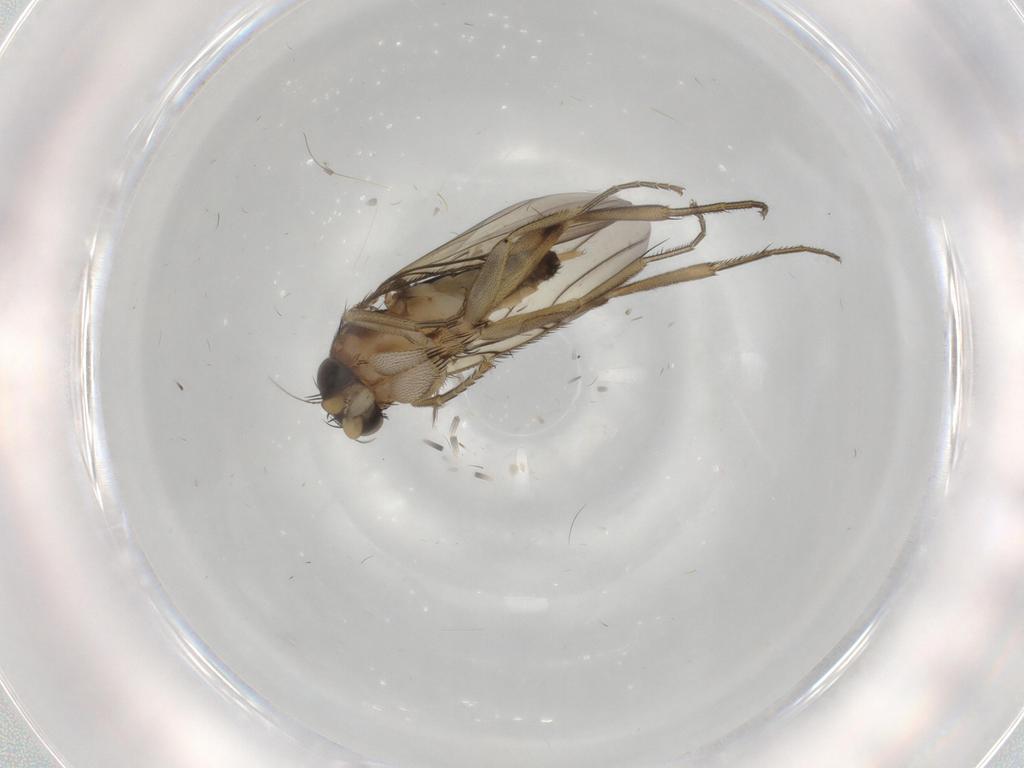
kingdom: Animalia
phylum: Arthropoda
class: Insecta
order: Diptera
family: Phoridae
